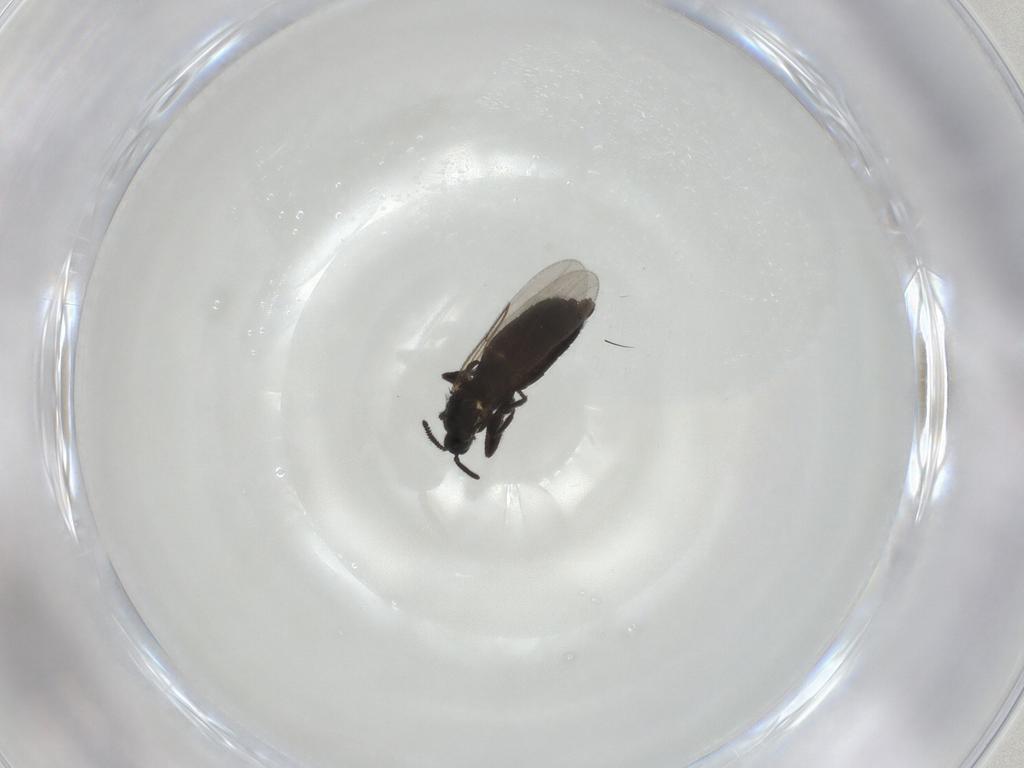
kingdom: Animalia
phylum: Arthropoda
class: Insecta
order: Diptera
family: Scatopsidae
